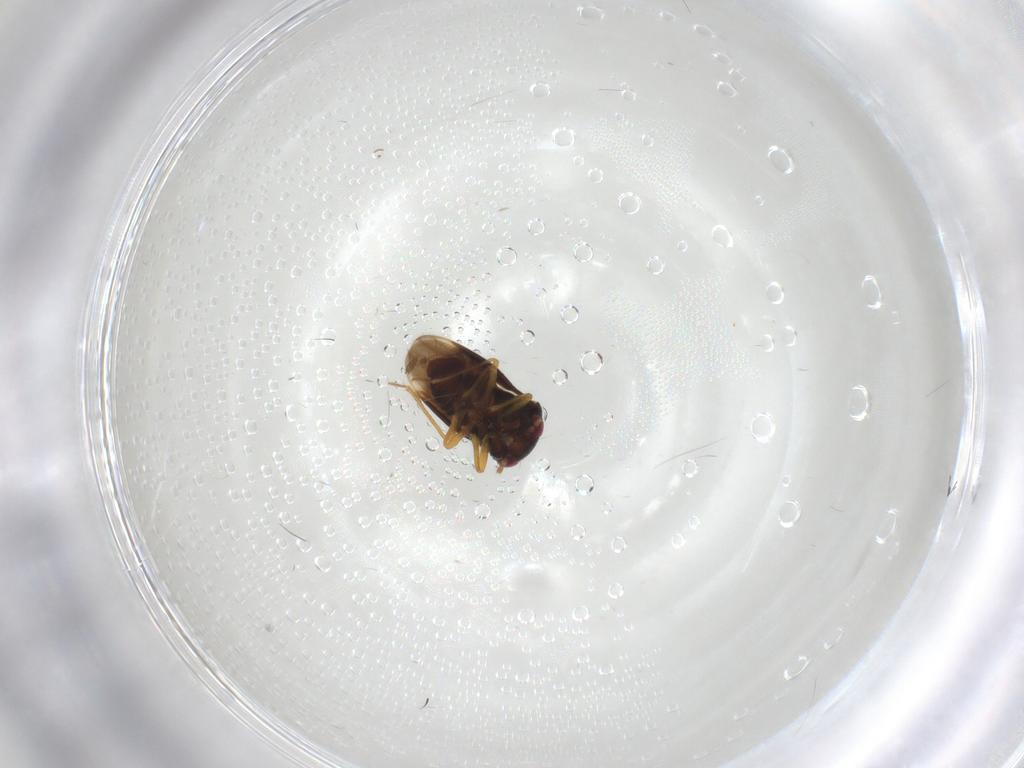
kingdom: Animalia
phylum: Arthropoda
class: Insecta
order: Hemiptera
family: Schizopteridae
